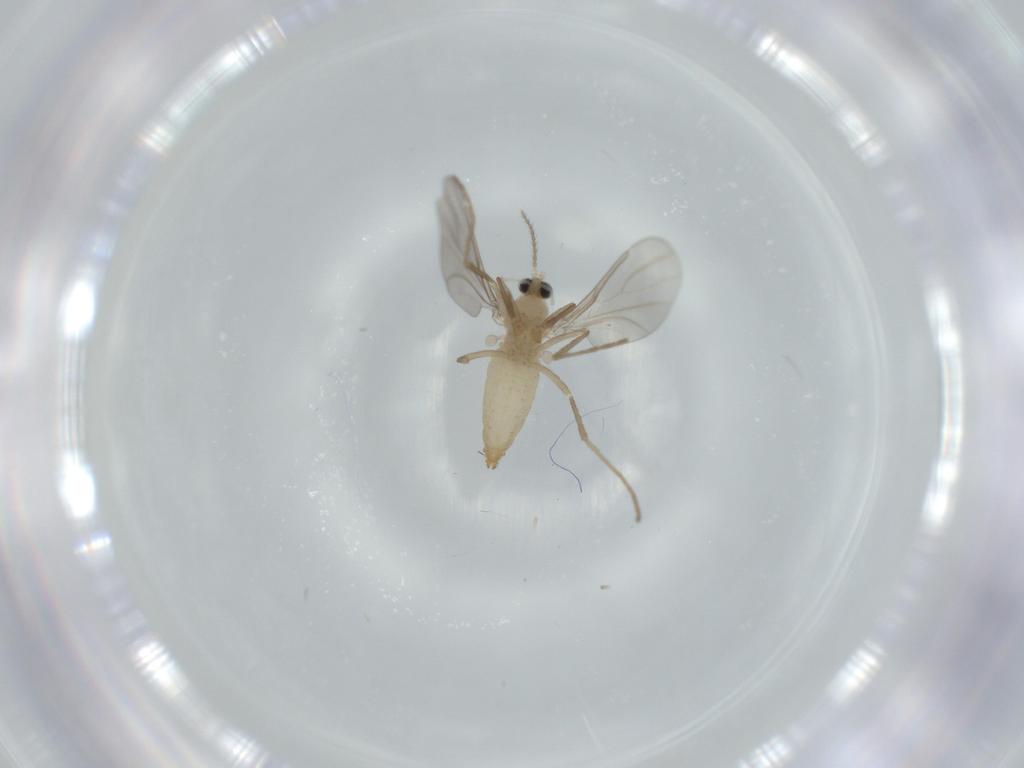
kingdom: Animalia
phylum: Arthropoda
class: Insecta
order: Diptera
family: Cecidomyiidae
